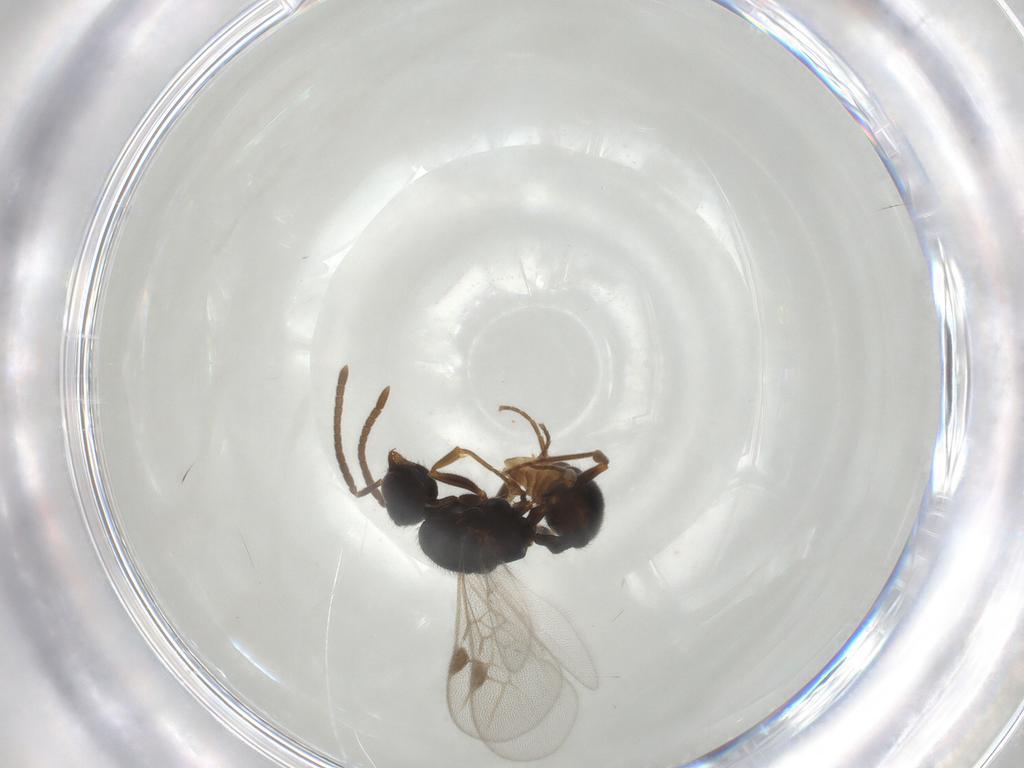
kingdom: Animalia
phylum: Arthropoda
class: Insecta
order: Hymenoptera
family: Formicidae
